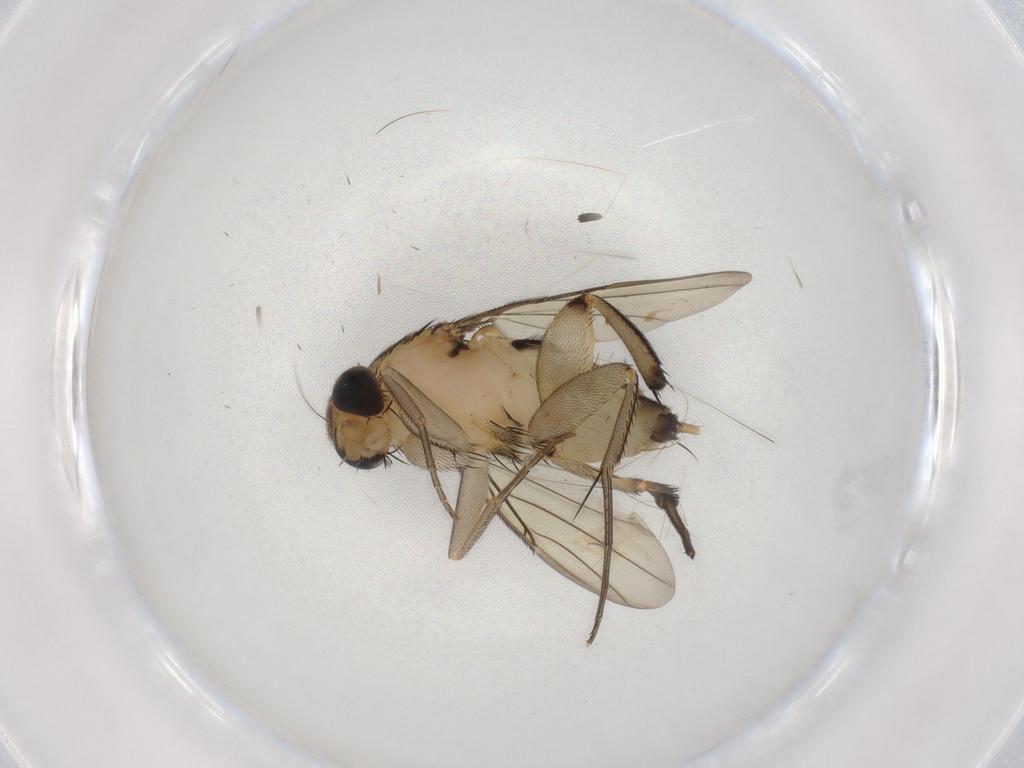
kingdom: Animalia
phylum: Arthropoda
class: Insecta
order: Diptera
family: Phoridae
